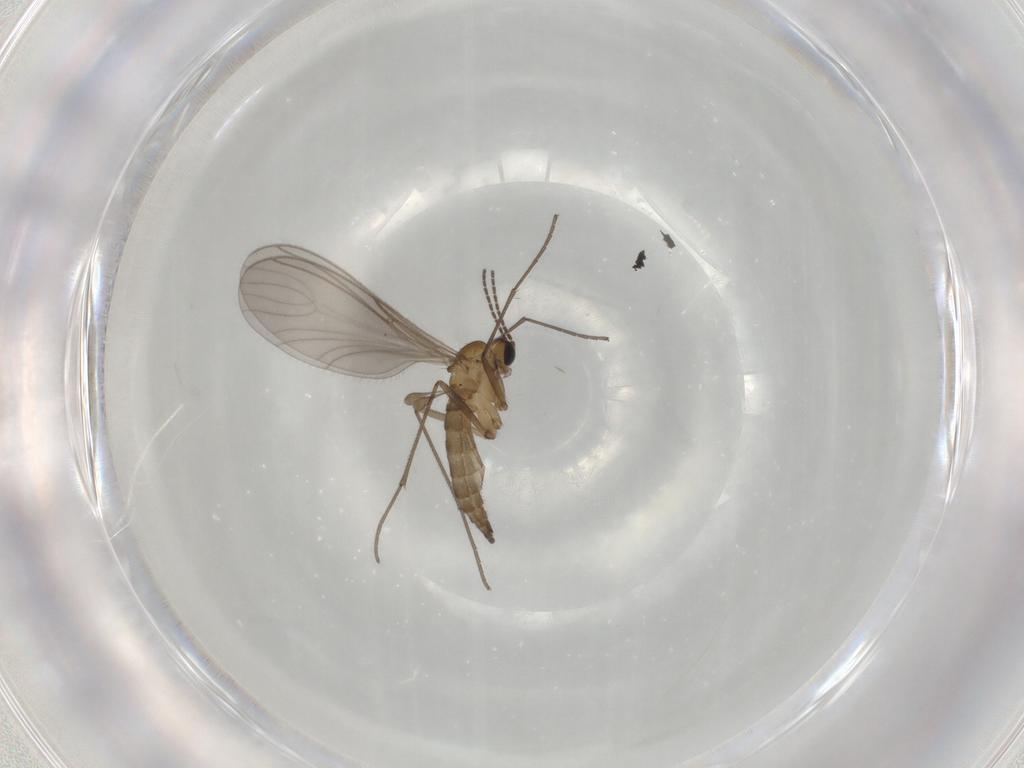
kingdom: Animalia
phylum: Arthropoda
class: Insecta
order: Diptera
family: Sciaridae
